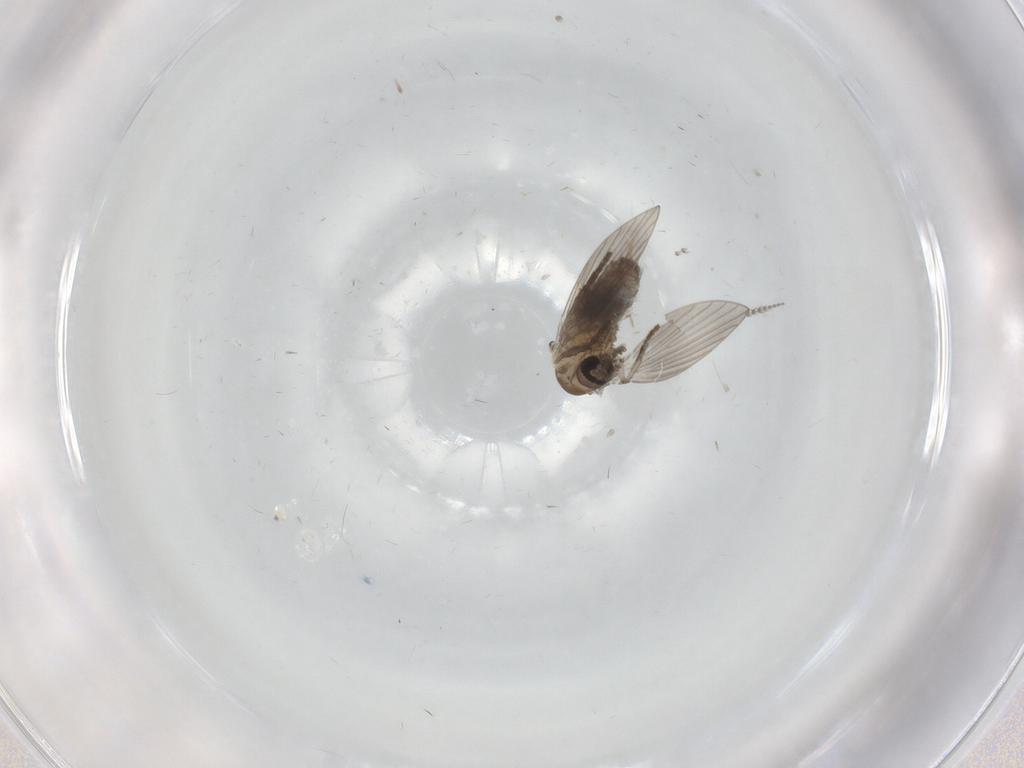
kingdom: Animalia
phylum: Arthropoda
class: Insecta
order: Diptera
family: Psychodidae
